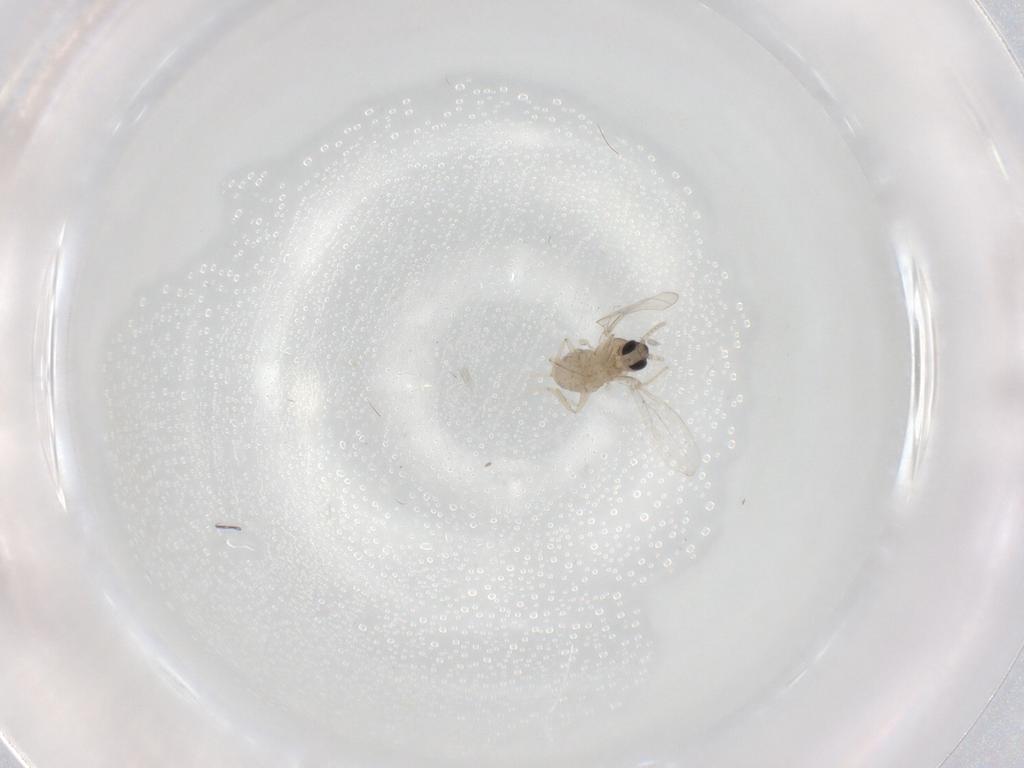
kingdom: Animalia
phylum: Arthropoda
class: Insecta
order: Diptera
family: Cecidomyiidae
